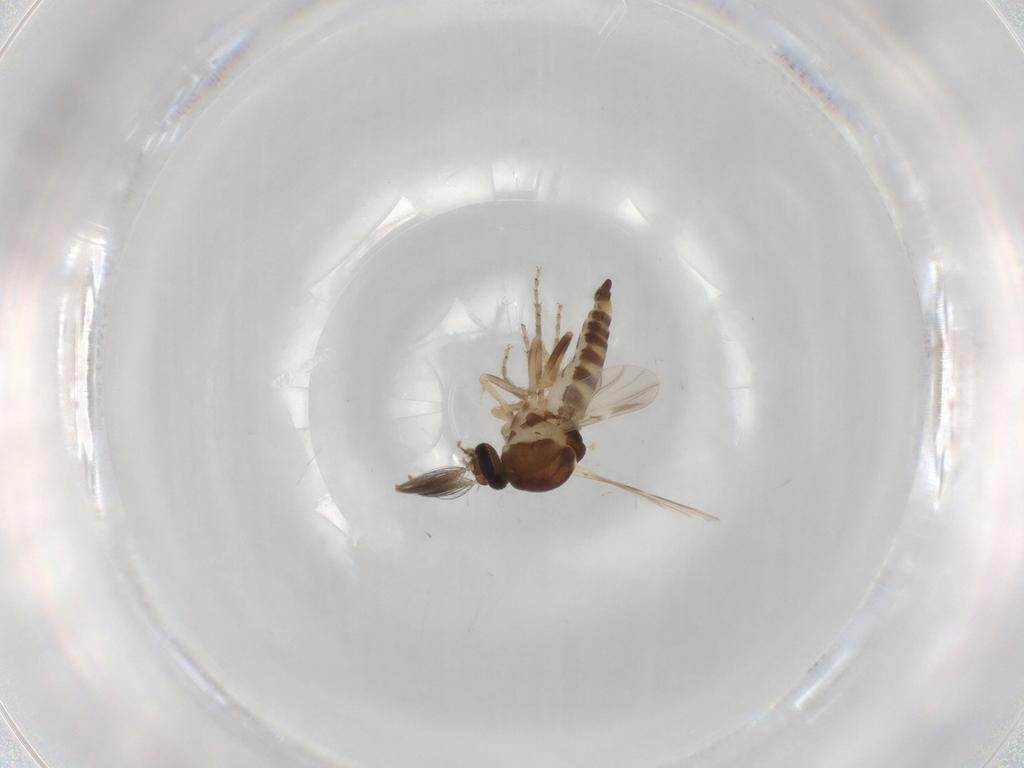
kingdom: Animalia
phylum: Arthropoda
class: Insecta
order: Diptera
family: Ceratopogonidae
